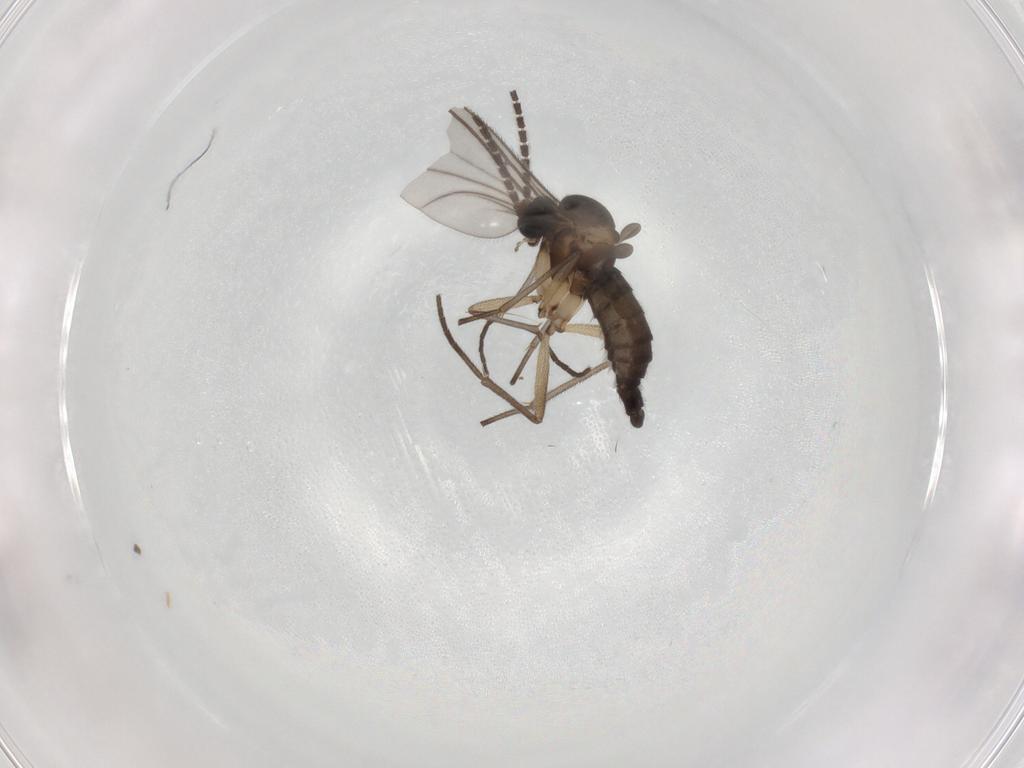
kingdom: Animalia
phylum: Arthropoda
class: Insecta
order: Diptera
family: Sciaridae
